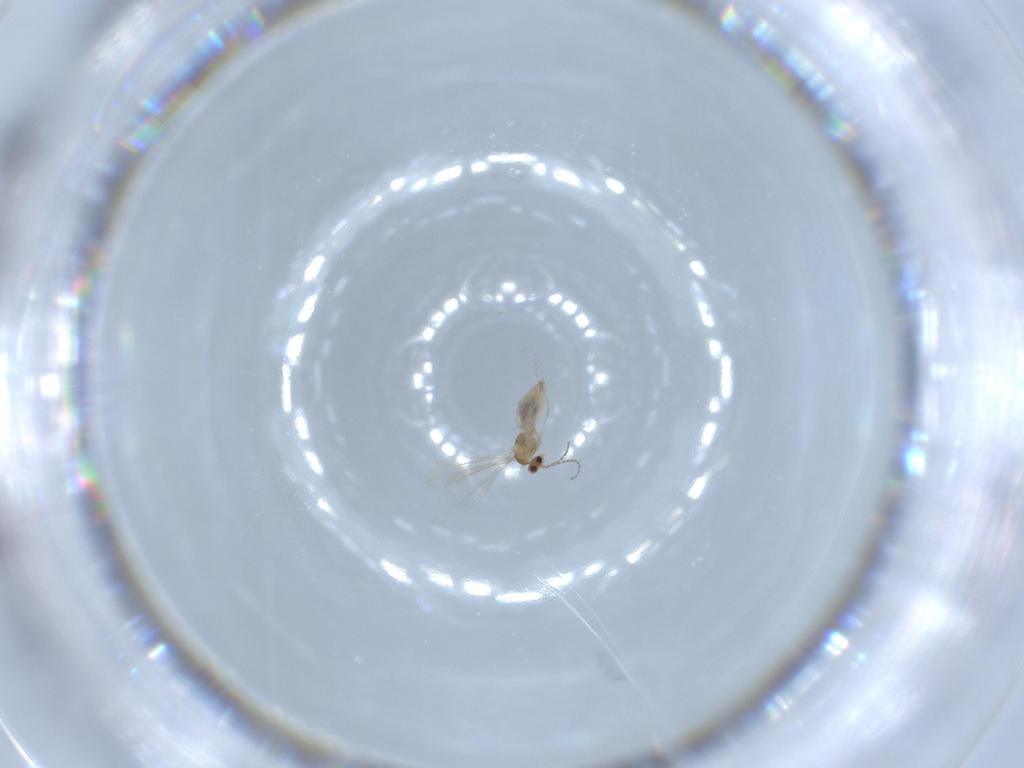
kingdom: Animalia
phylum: Arthropoda
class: Insecta
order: Diptera
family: Cecidomyiidae
